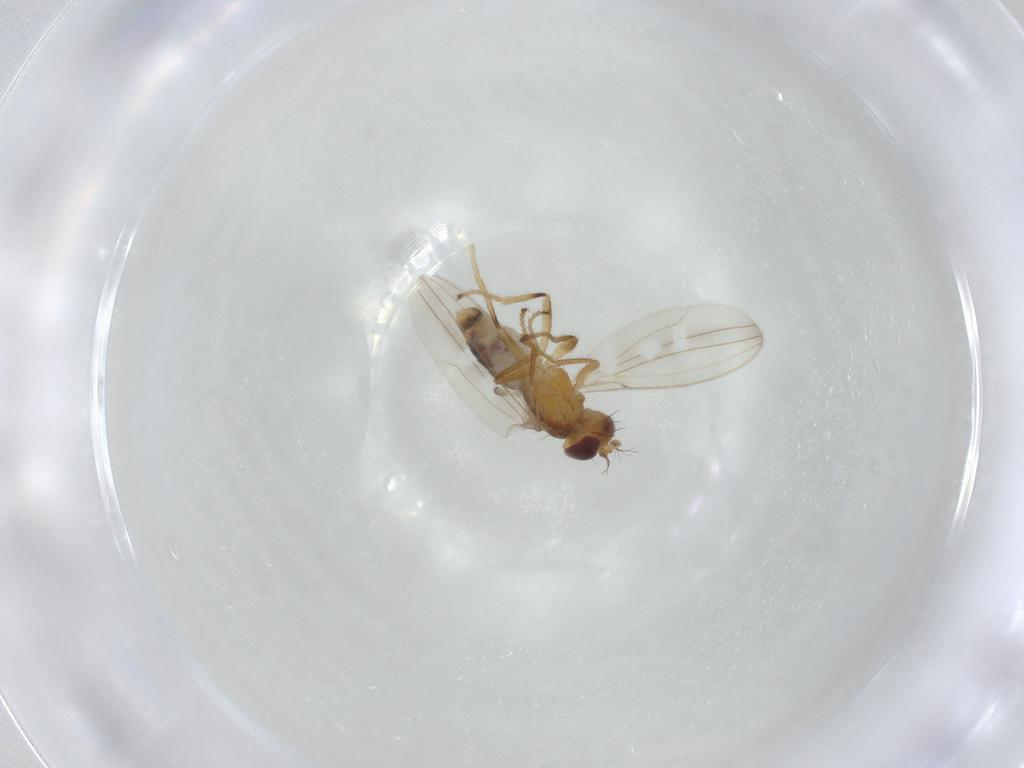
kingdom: Animalia
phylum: Arthropoda
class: Insecta
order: Diptera
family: Periscelididae
